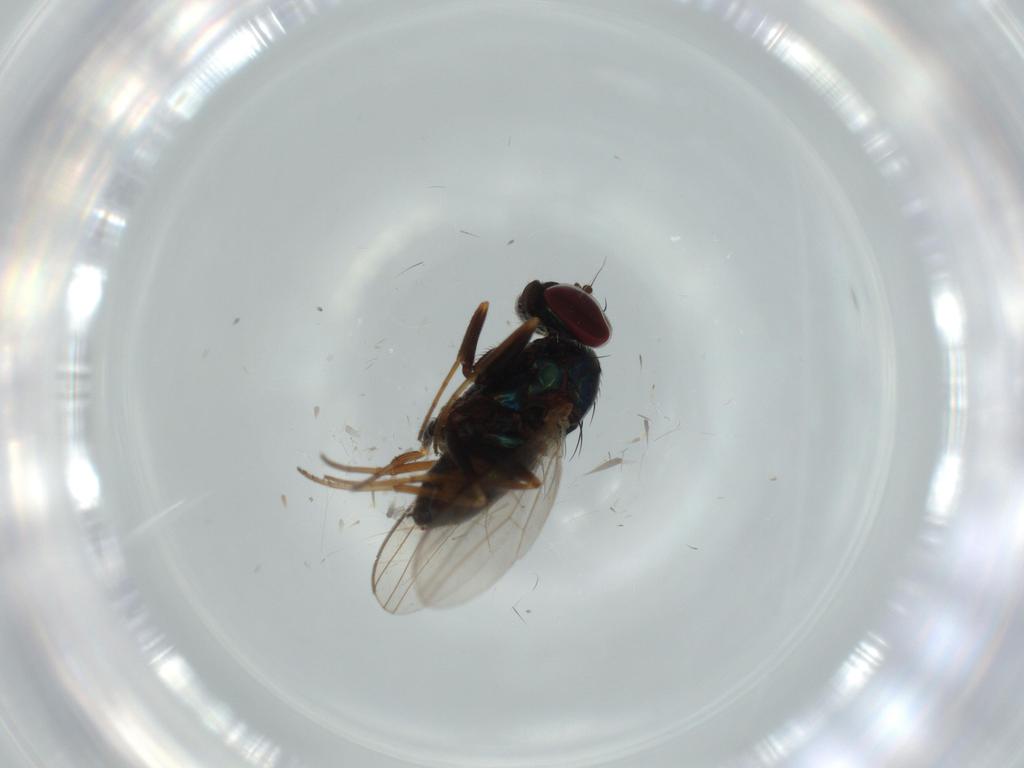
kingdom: Animalia
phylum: Arthropoda
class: Insecta
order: Diptera
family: Dolichopodidae
